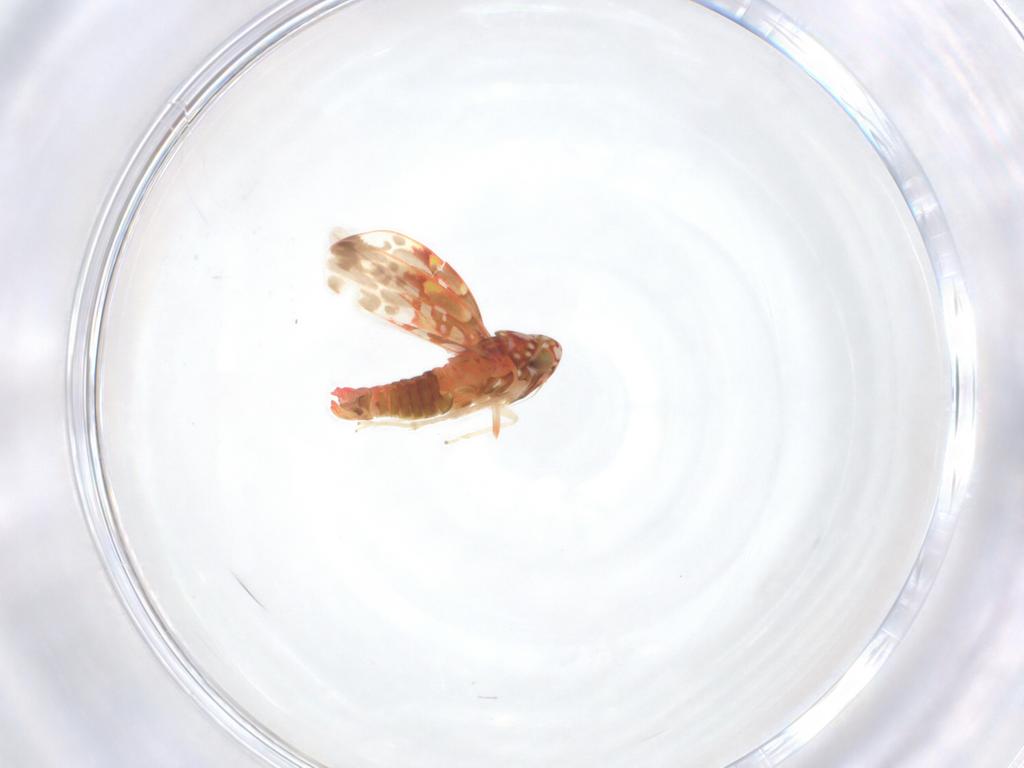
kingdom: Animalia
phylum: Arthropoda
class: Insecta
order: Hemiptera
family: Cicadellidae
